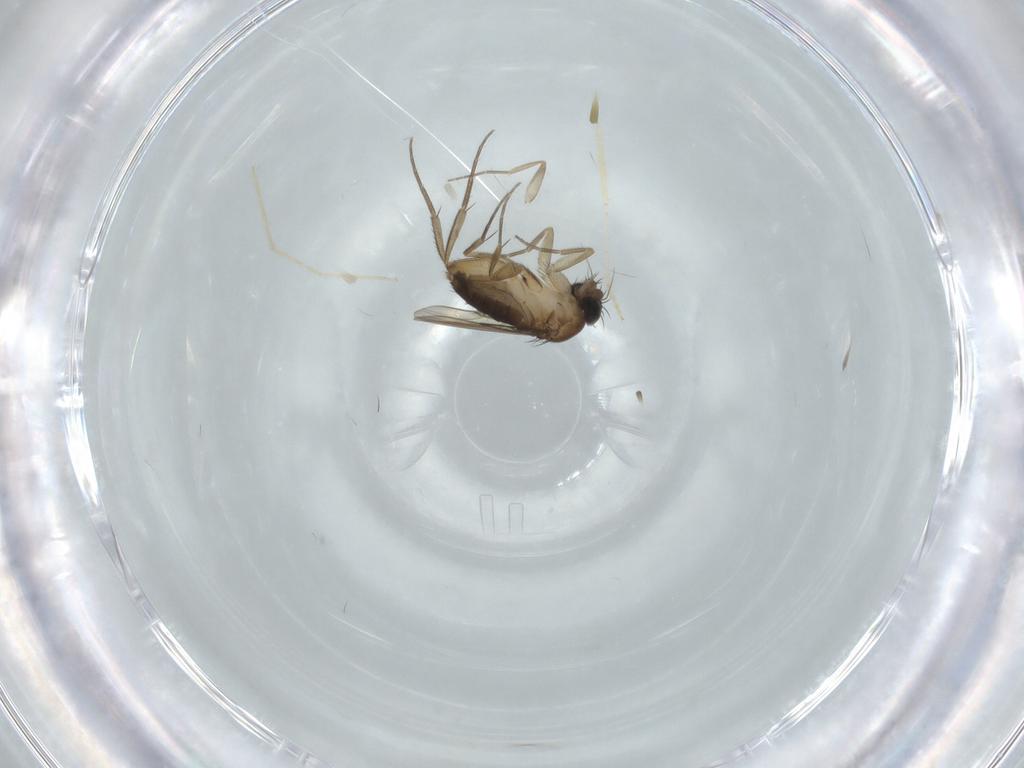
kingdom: Animalia
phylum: Arthropoda
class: Insecta
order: Diptera
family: Phoridae
